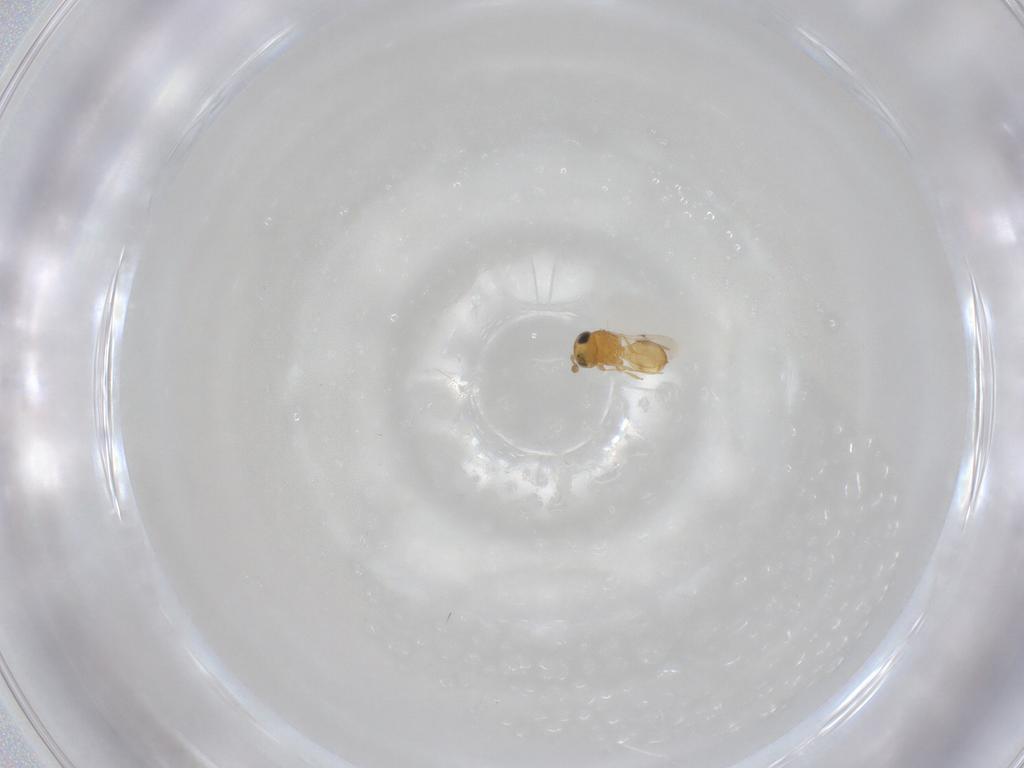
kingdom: Animalia
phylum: Arthropoda
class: Insecta
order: Hymenoptera
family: Scelionidae
